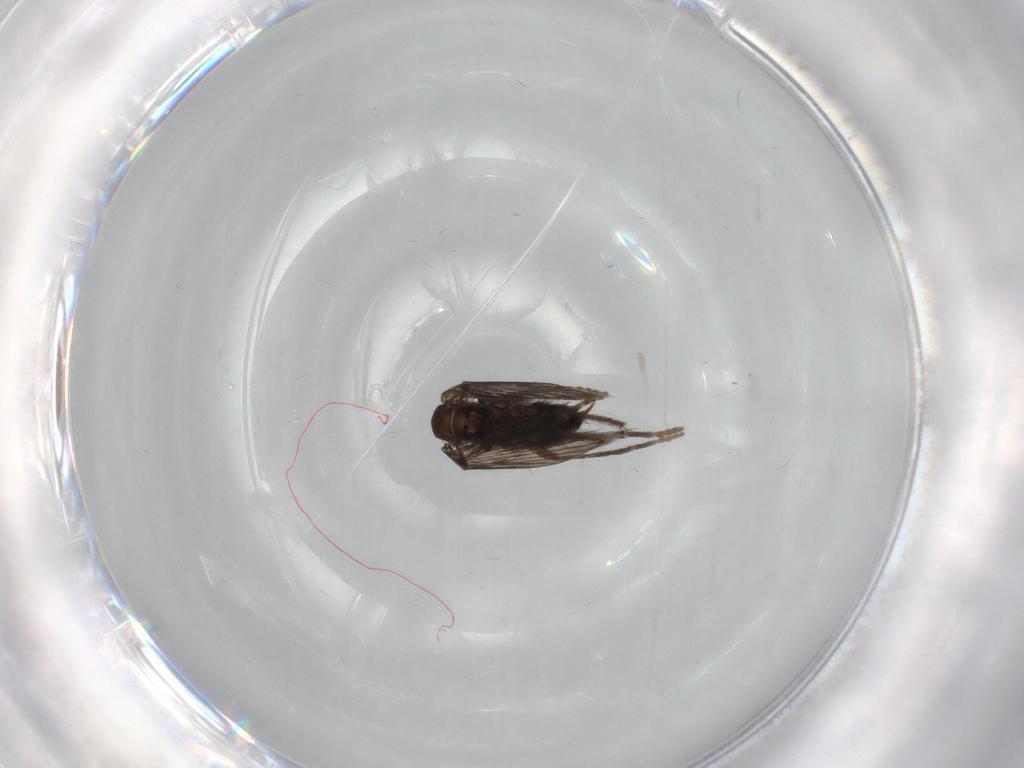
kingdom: Animalia
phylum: Arthropoda
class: Insecta
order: Diptera
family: Psychodidae
